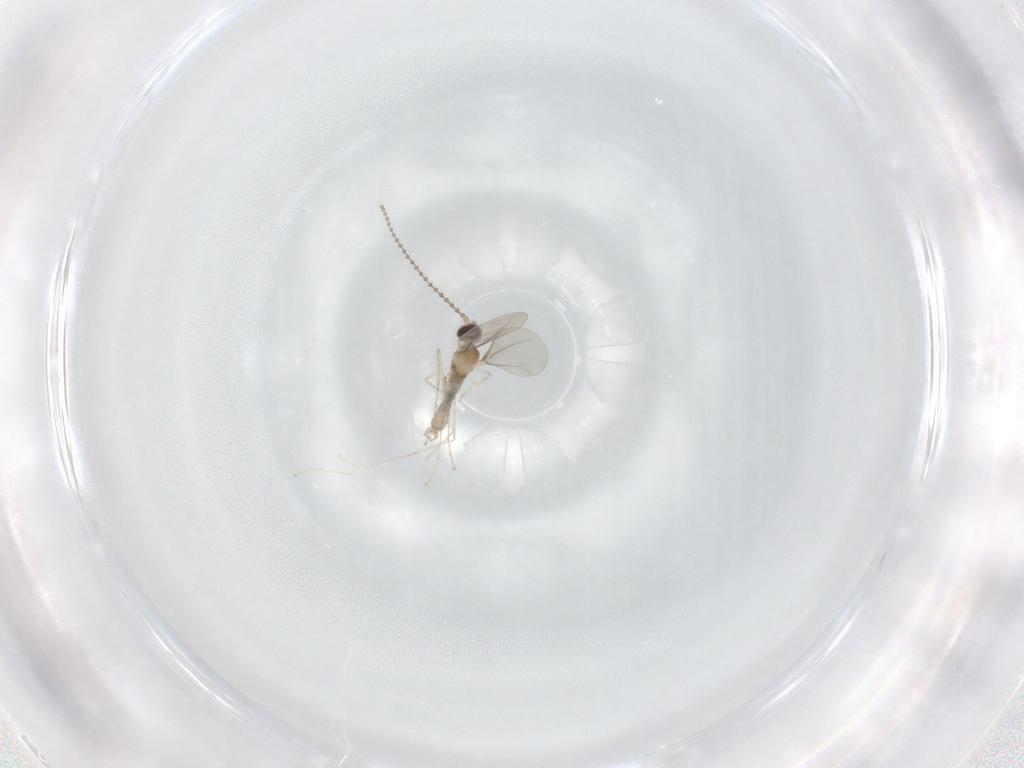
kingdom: Animalia
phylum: Arthropoda
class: Insecta
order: Diptera
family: Cecidomyiidae
